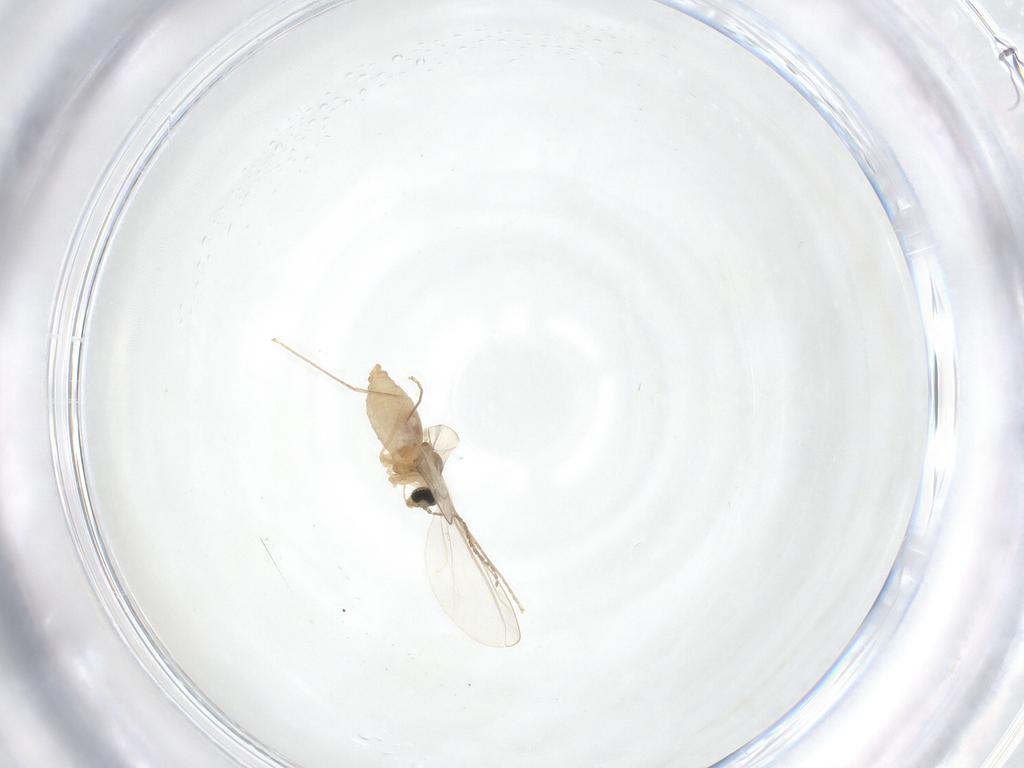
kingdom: Animalia
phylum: Arthropoda
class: Insecta
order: Diptera
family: Cecidomyiidae
